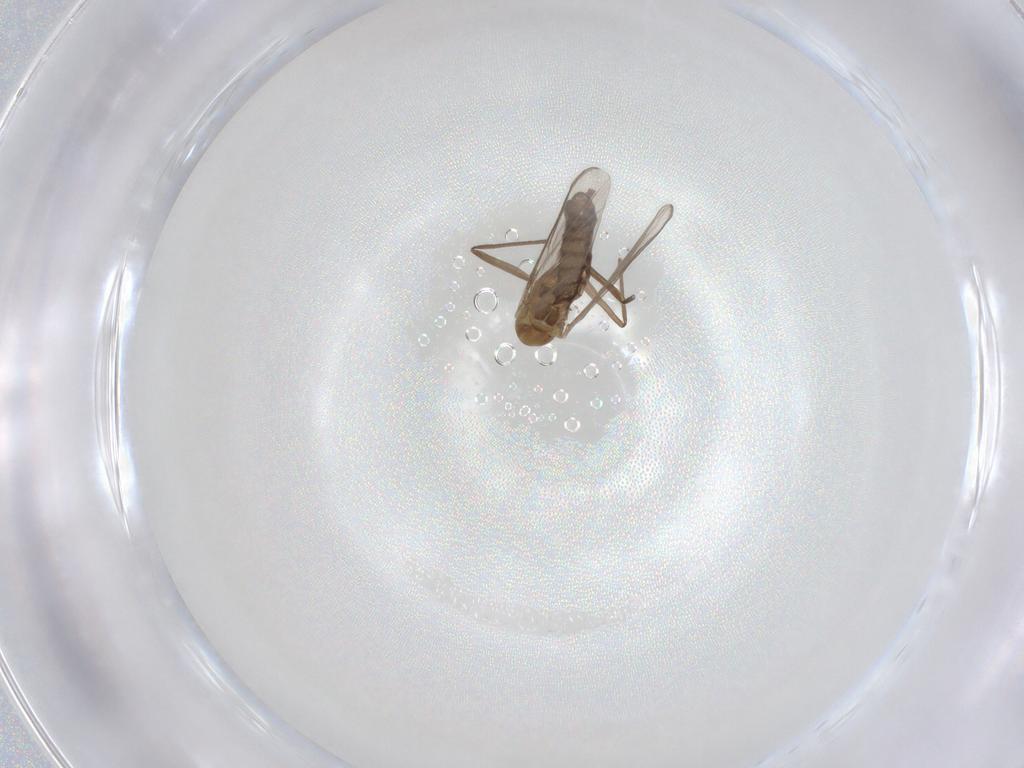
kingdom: Animalia
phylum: Arthropoda
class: Insecta
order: Diptera
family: Chironomidae
